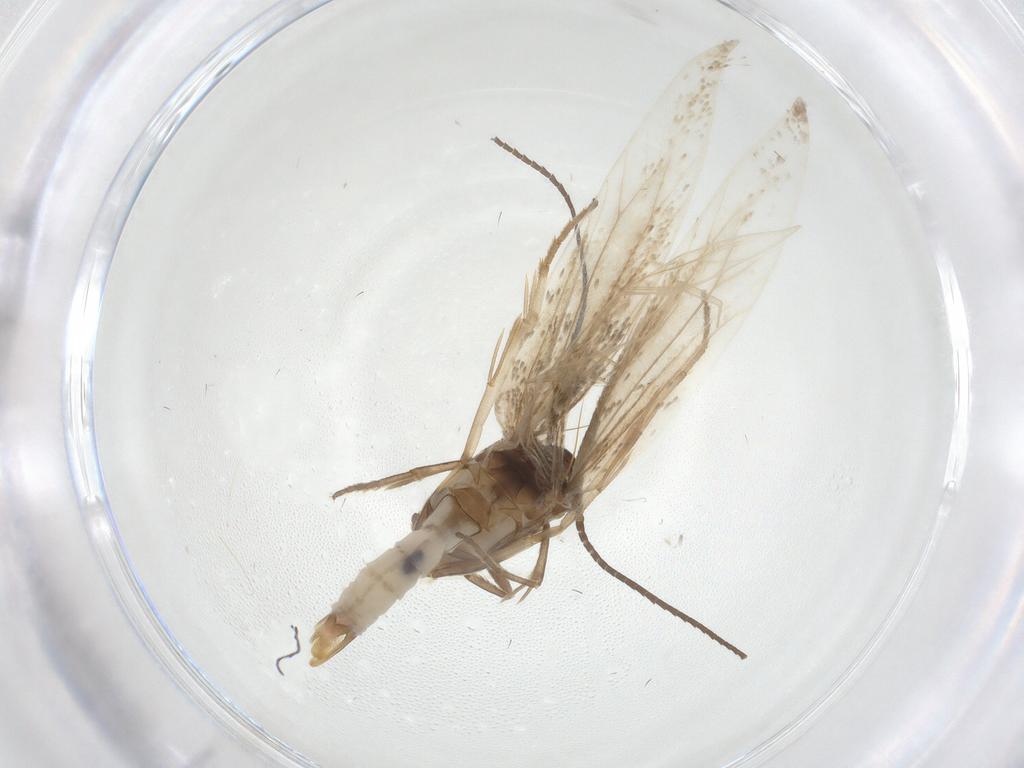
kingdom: Animalia
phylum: Arthropoda
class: Insecta
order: Lepidoptera
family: Elachistidae
